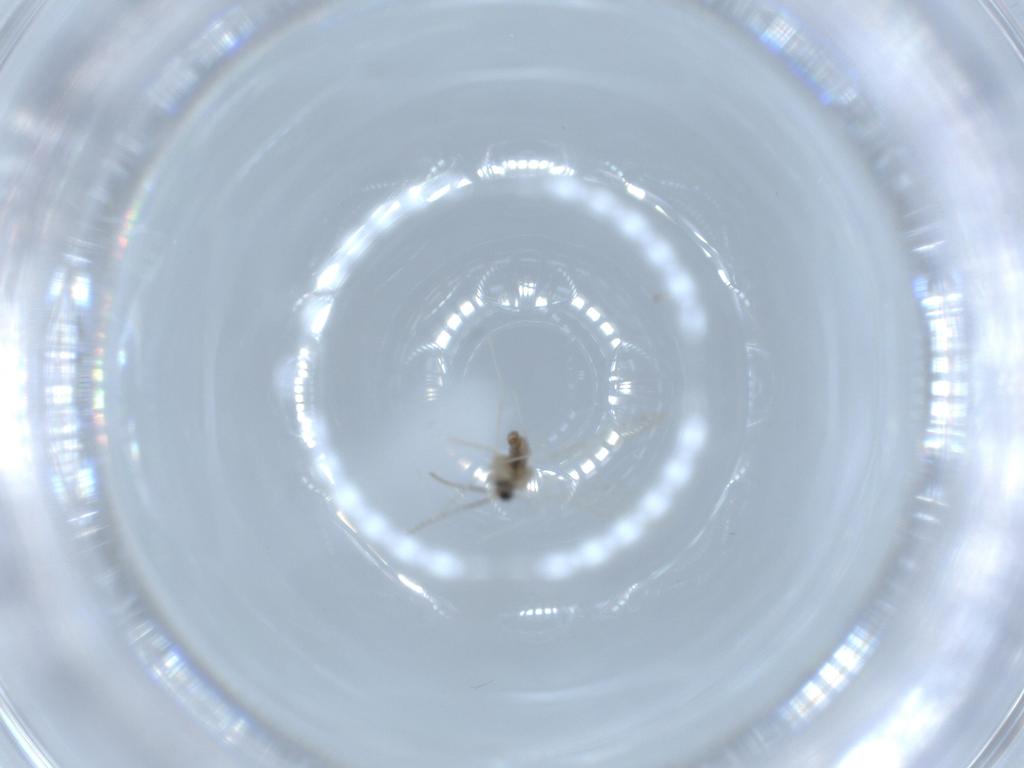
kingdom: Animalia
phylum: Arthropoda
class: Insecta
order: Diptera
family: Cecidomyiidae
